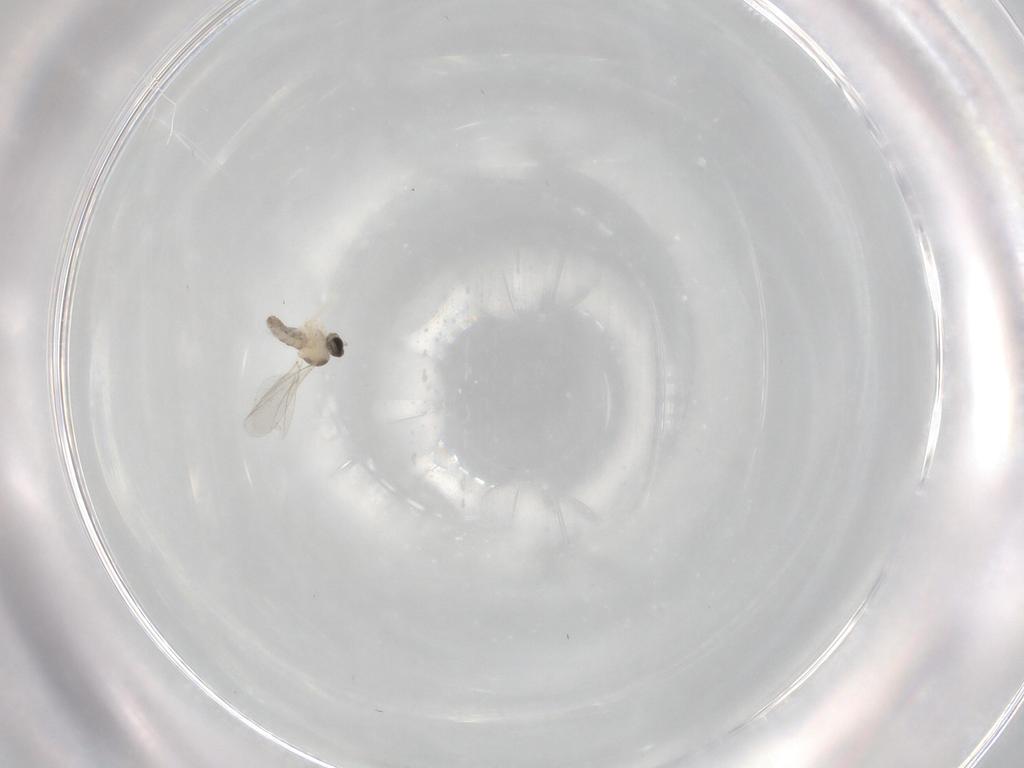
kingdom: Animalia
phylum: Arthropoda
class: Insecta
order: Diptera
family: Cecidomyiidae
